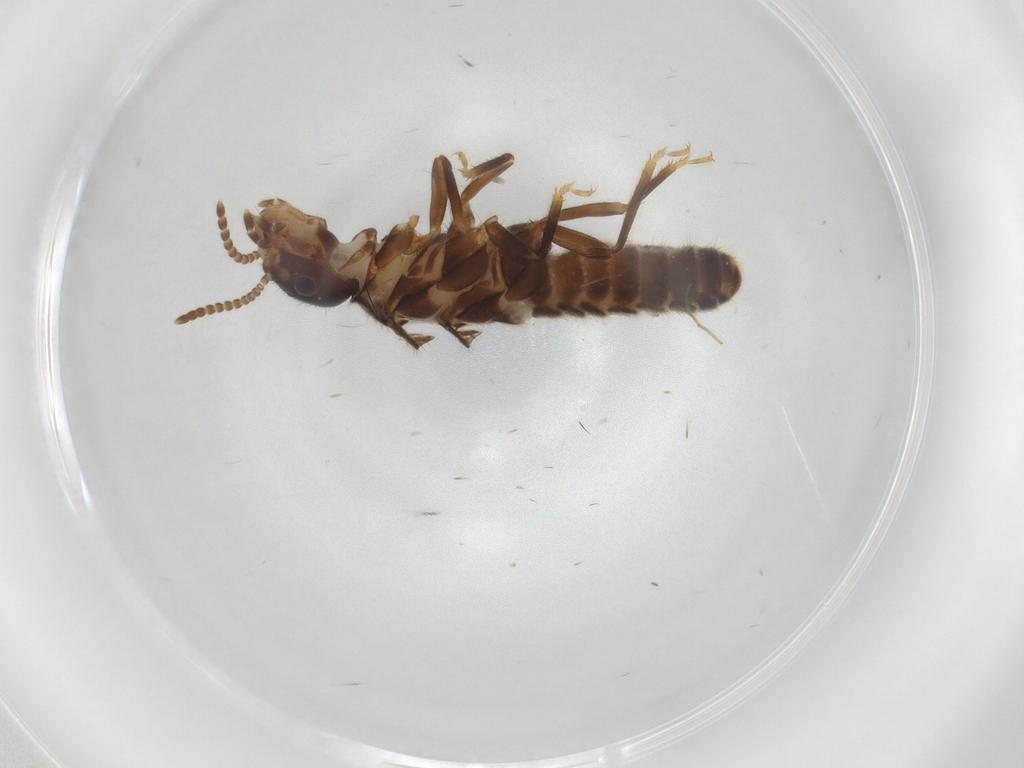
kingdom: Animalia
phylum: Arthropoda
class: Insecta
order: Blattodea
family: Termitidae
